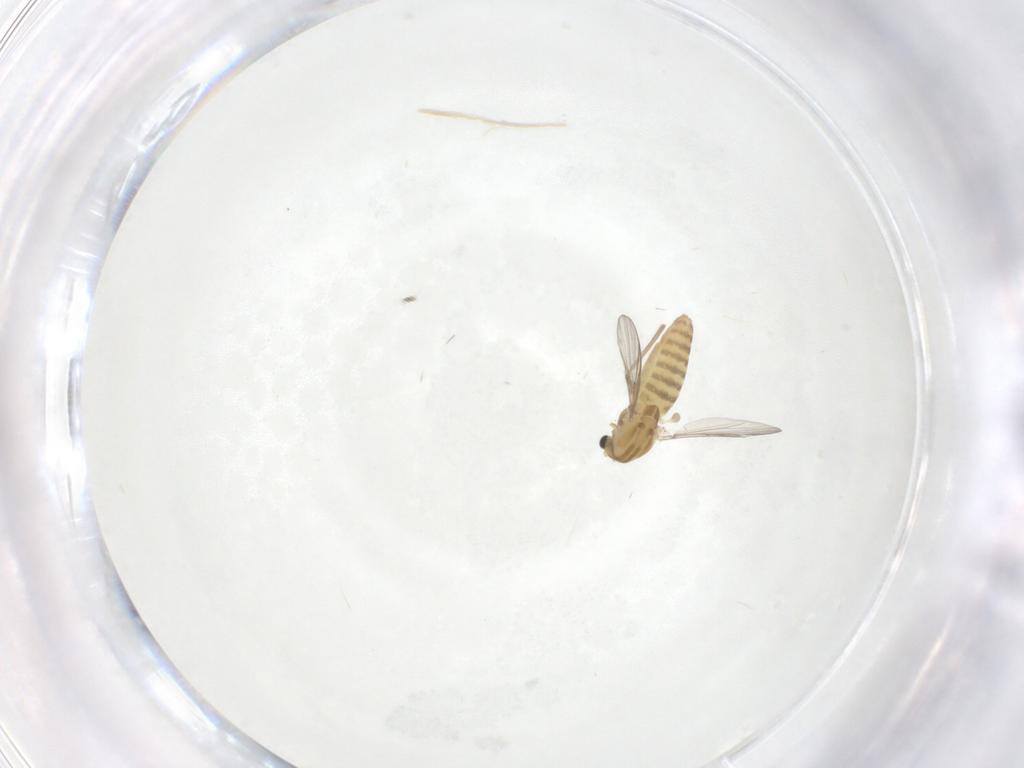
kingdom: Animalia
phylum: Arthropoda
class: Insecta
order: Diptera
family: Chironomidae
